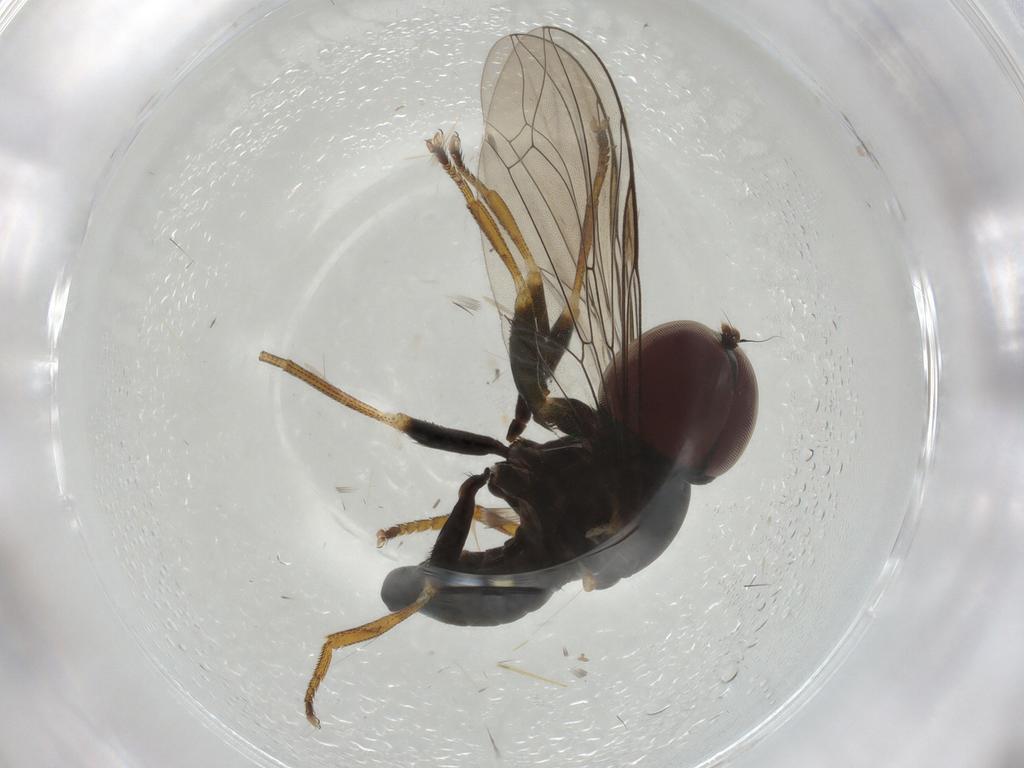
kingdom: Animalia
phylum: Arthropoda
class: Insecta
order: Diptera
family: Pipunculidae
